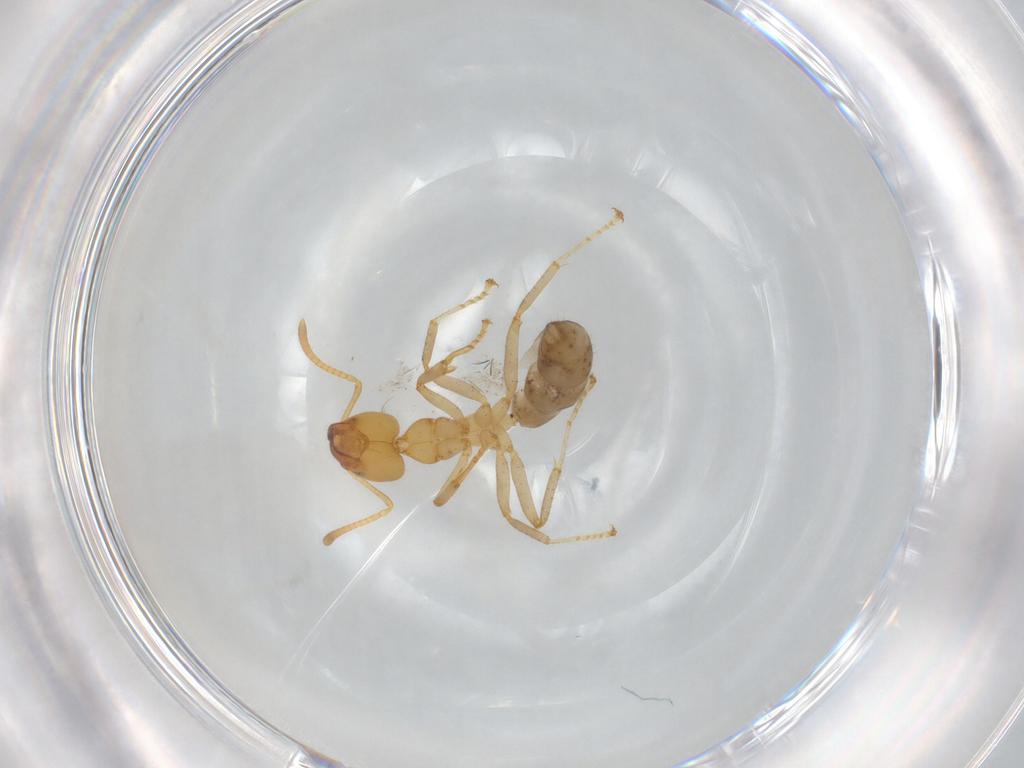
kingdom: Animalia
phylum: Arthropoda
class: Insecta
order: Hymenoptera
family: Formicidae
